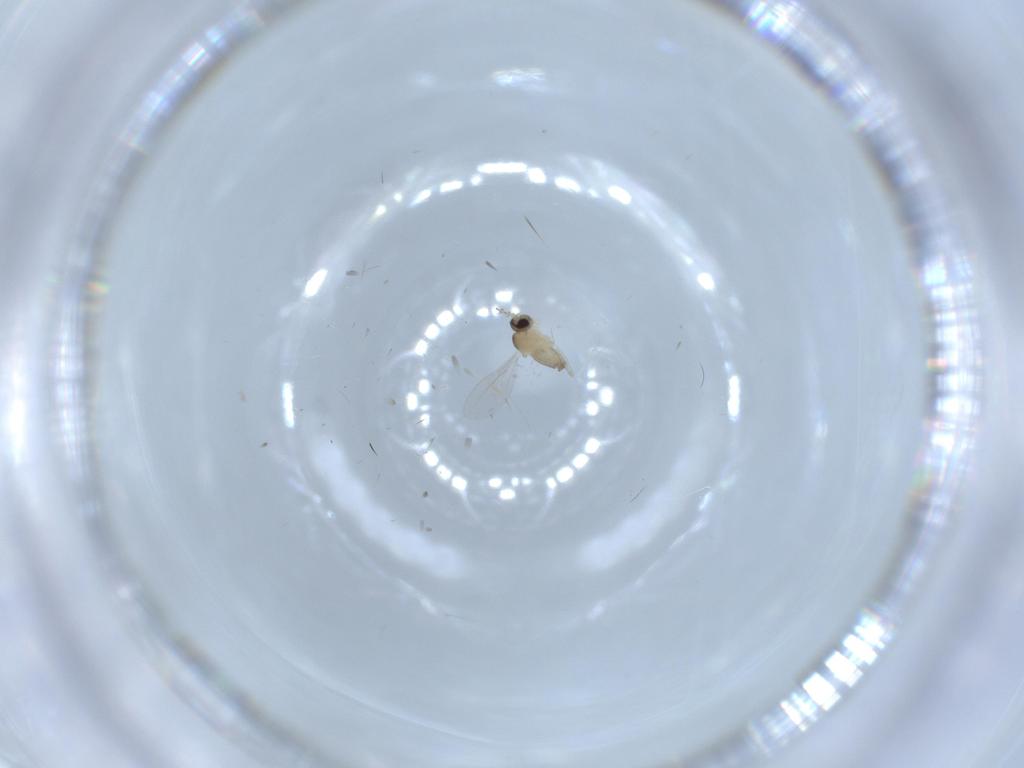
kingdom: Animalia
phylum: Arthropoda
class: Insecta
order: Diptera
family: Cecidomyiidae
